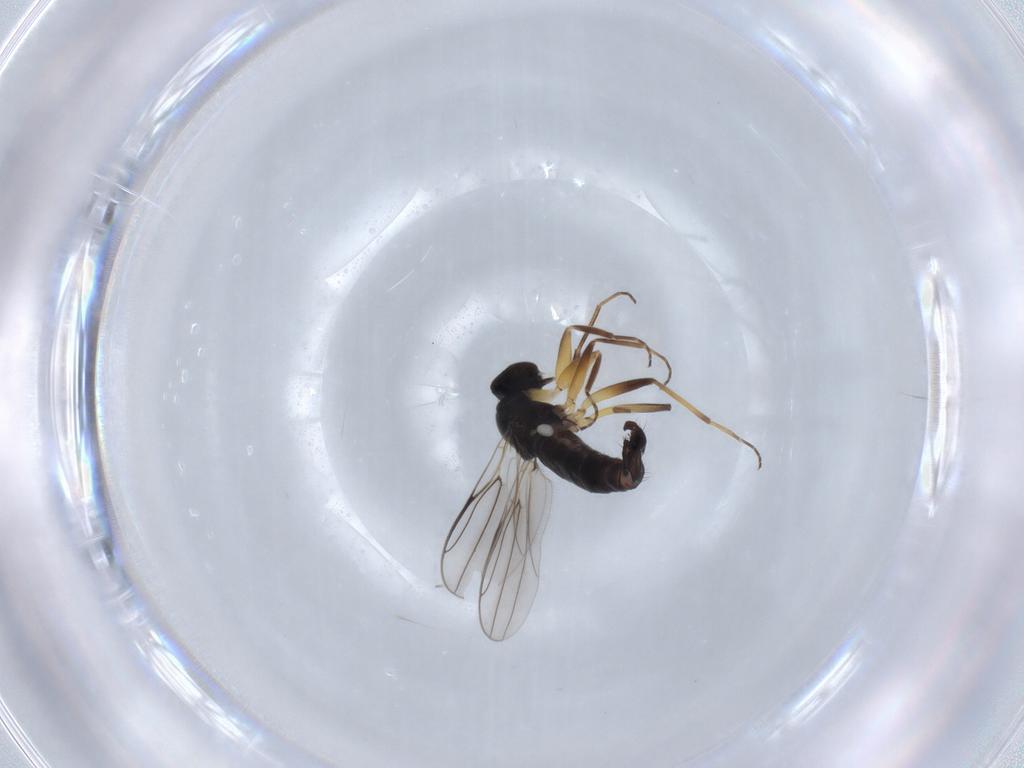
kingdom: Animalia
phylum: Arthropoda
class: Insecta
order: Diptera
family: Hybotidae
